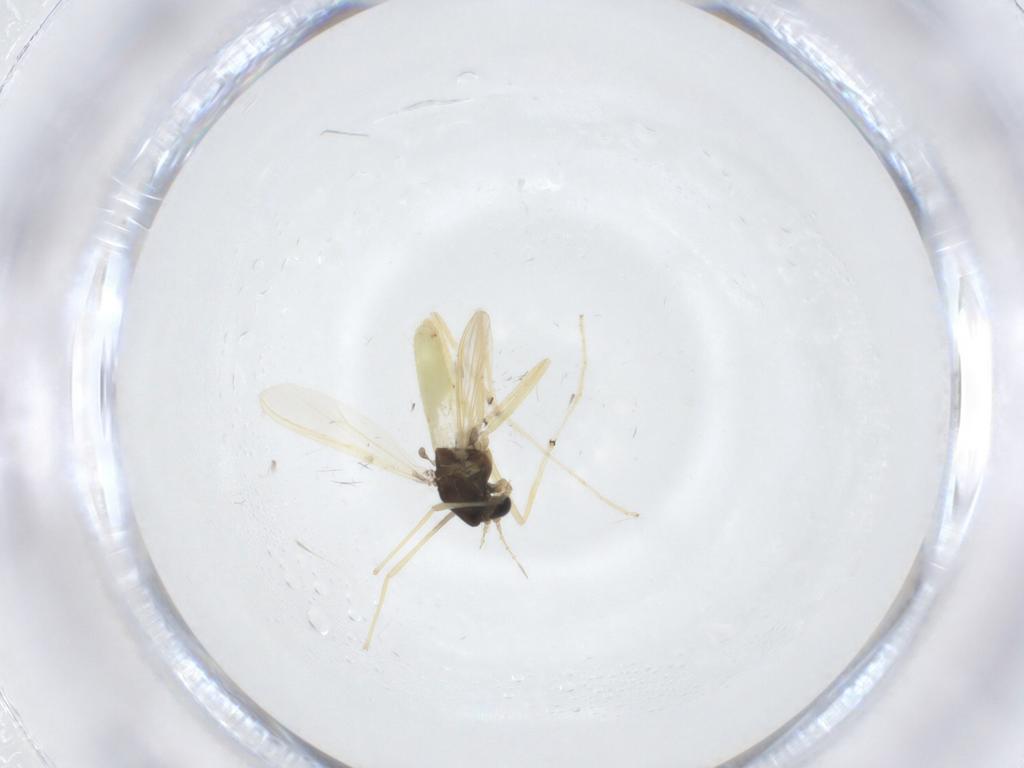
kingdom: Animalia
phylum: Arthropoda
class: Insecta
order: Diptera
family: Chironomidae
